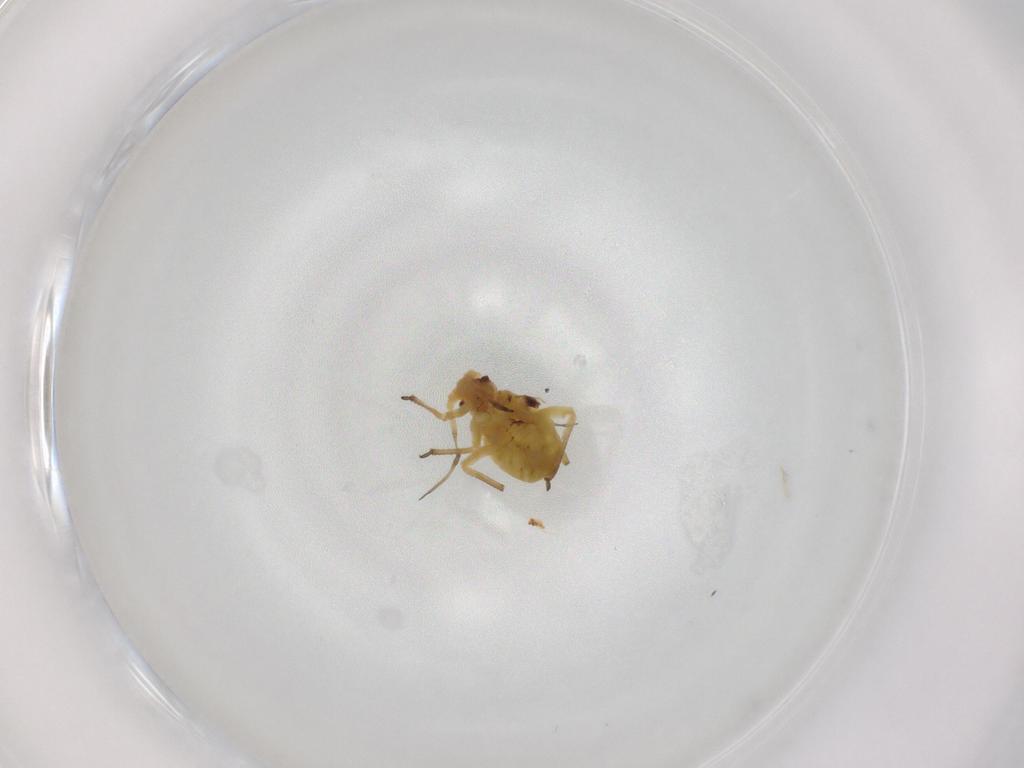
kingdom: Animalia
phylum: Arthropoda
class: Insecta
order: Hemiptera
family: Aphididae
